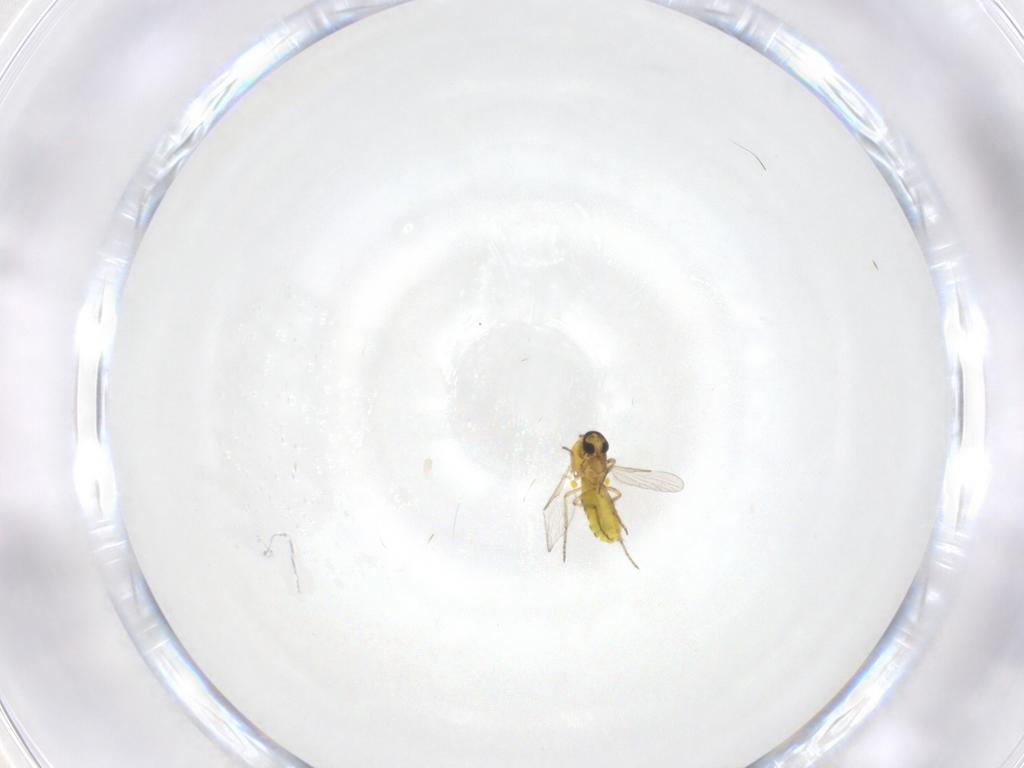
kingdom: Animalia
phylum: Arthropoda
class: Insecta
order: Diptera
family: Ceratopogonidae
